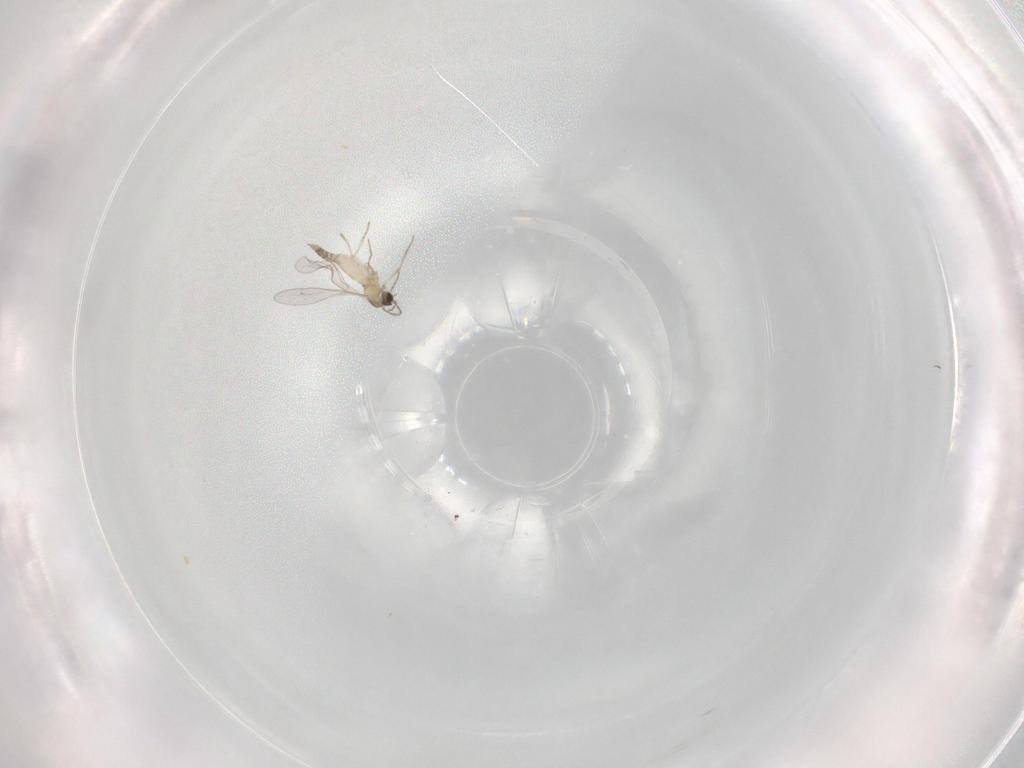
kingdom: Animalia
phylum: Arthropoda
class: Insecta
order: Diptera
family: Cecidomyiidae
